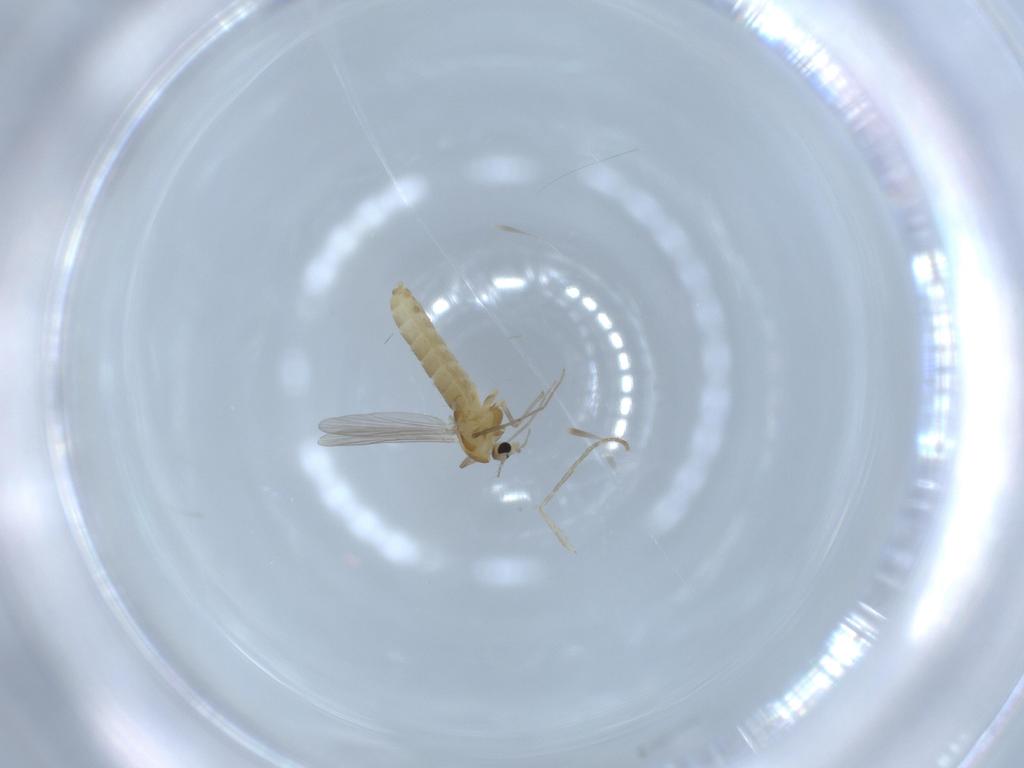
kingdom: Animalia
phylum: Arthropoda
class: Insecta
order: Diptera
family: Chironomidae
